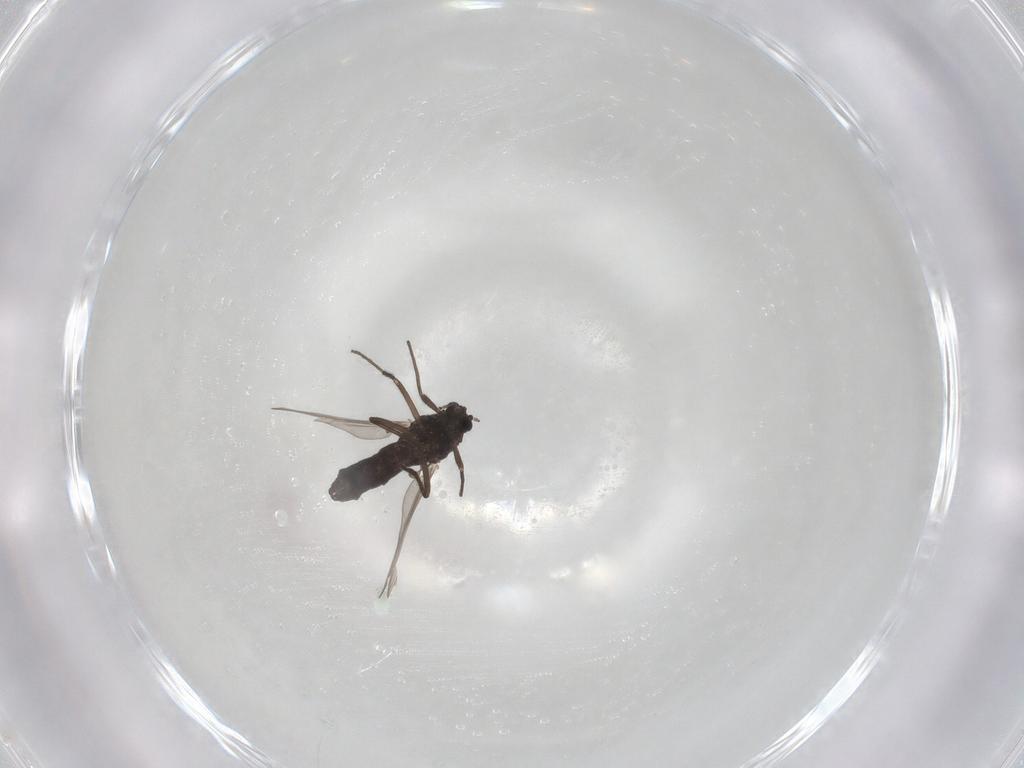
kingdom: Animalia
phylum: Arthropoda
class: Insecta
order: Diptera
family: Chironomidae
